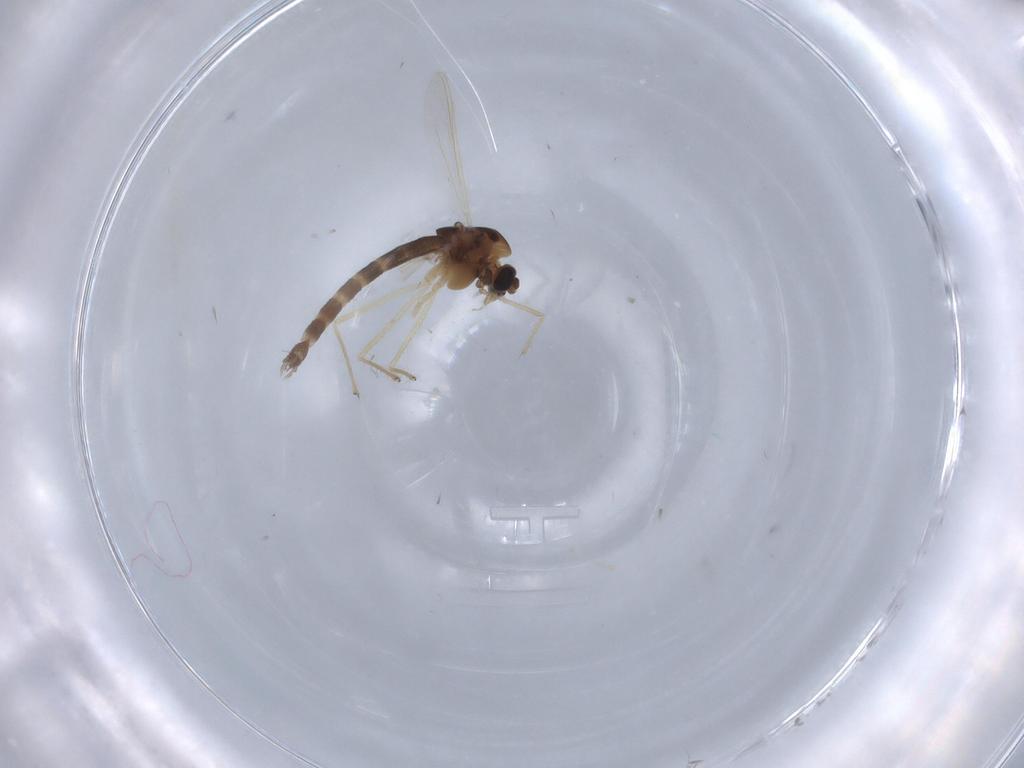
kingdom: Animalia
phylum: Arthropoda
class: Insecta
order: Diptera
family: Chironomidae
